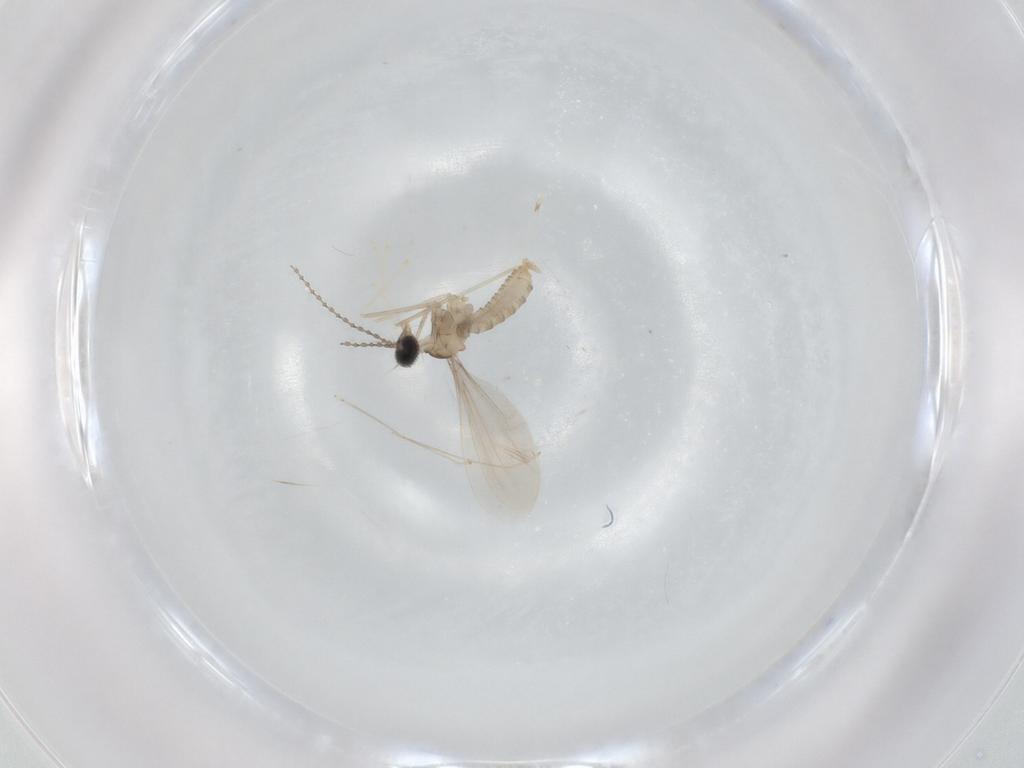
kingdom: Animalia
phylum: Arthropoda
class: Insecta
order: Diptera
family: Cecidomyiidae
